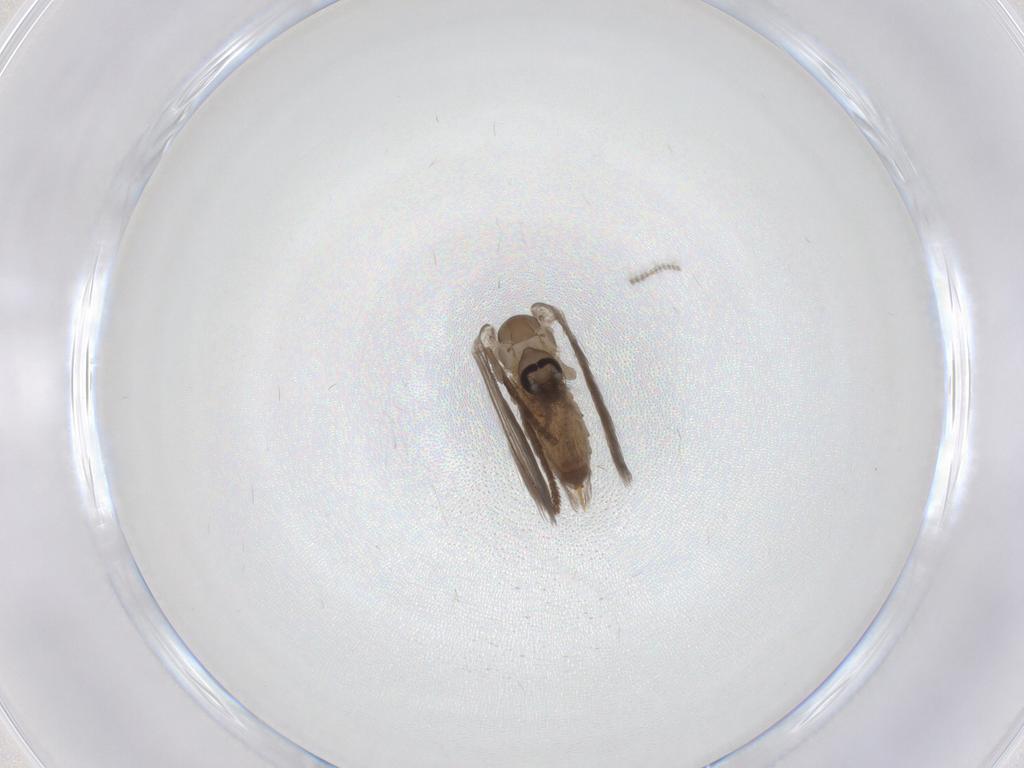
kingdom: Animalia
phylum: Arthropoda
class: Insecta
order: Diptera
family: Psychodidae
